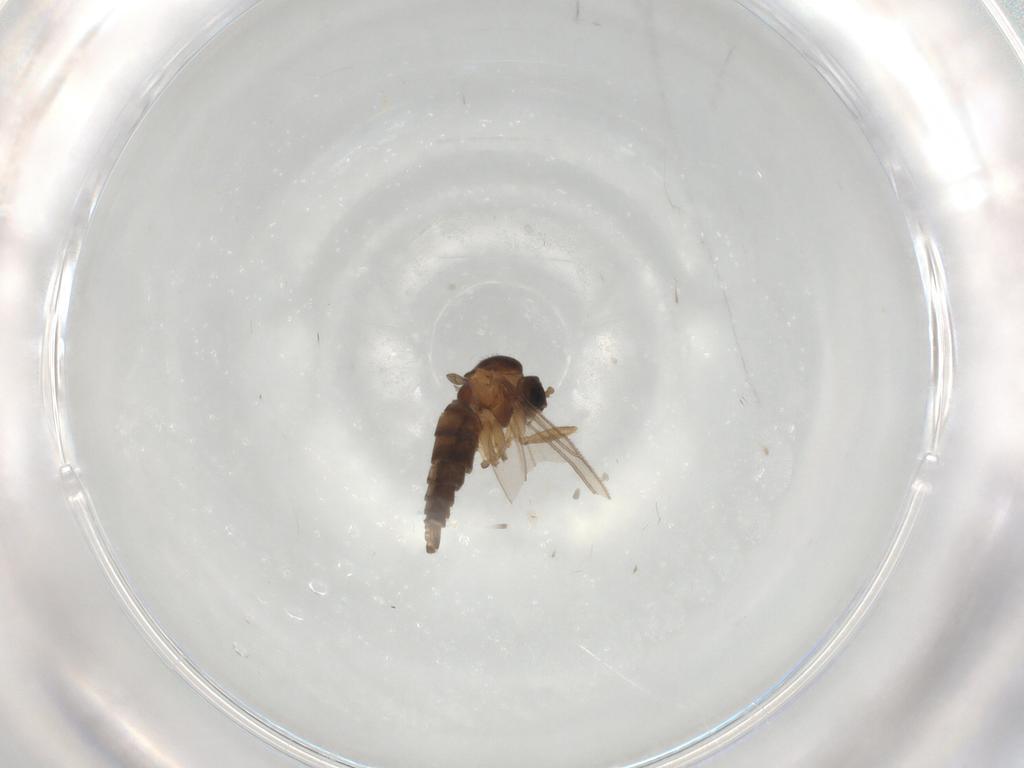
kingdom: Animalia
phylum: Arthropoda
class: Insecta
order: Diptera
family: Sciaridae
